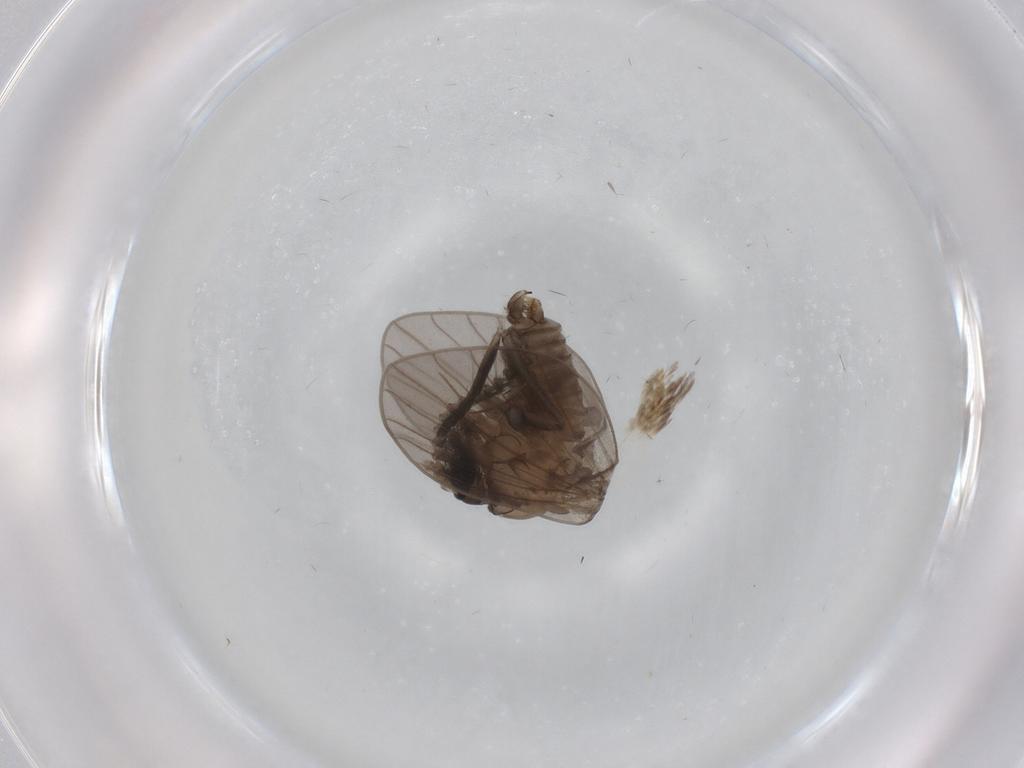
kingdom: Animalia
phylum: Arthropoda
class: Insecta
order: Diptera
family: Psychodidae
